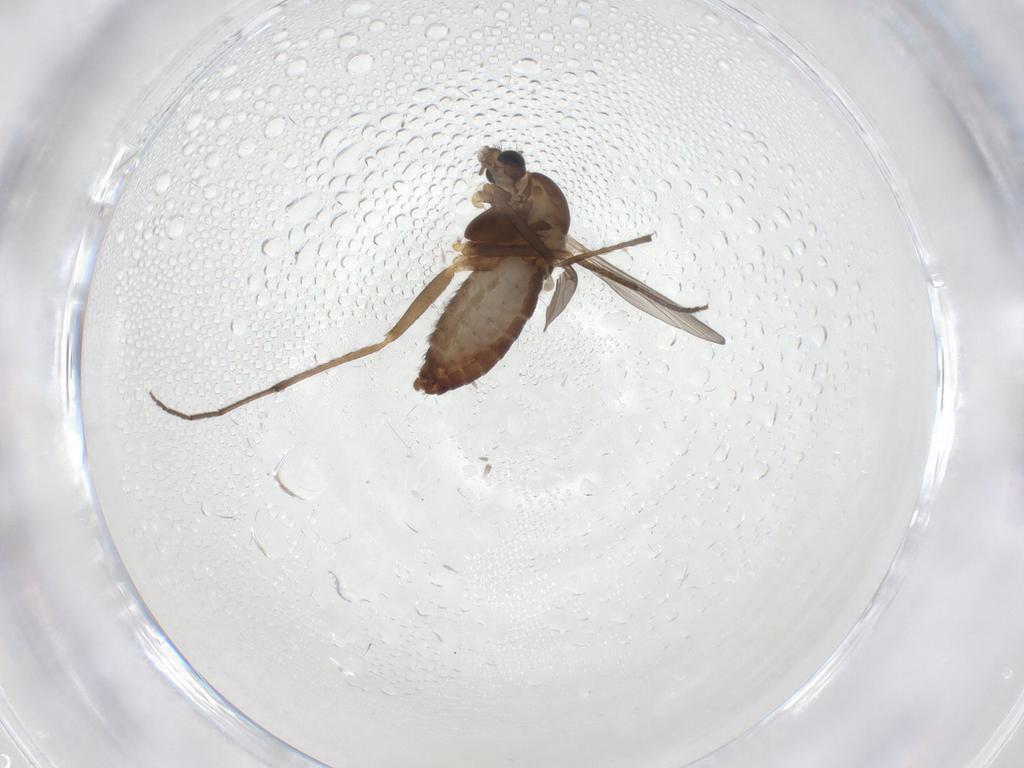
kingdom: Animalia
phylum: Arthropoda
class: Insecta
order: Diptera
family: Chironomidae
